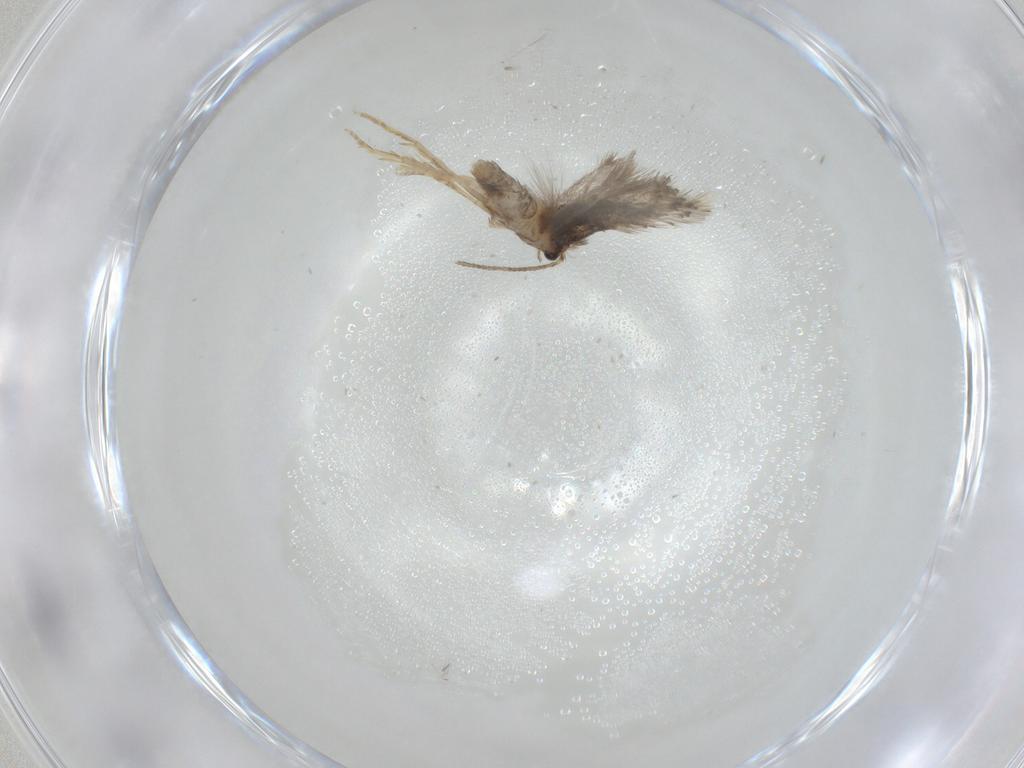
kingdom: Animalia
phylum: Arthropoda
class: Insecta
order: Lepidoptera
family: Nepticulidae
